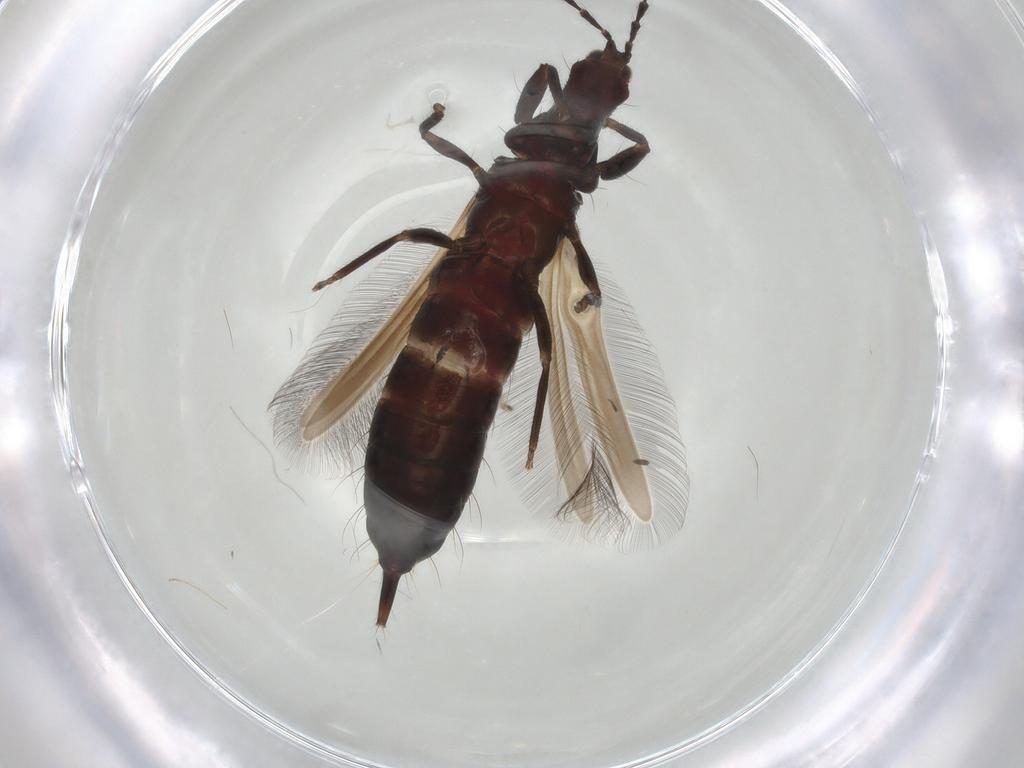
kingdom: Animalia
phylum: Arthropoda
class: Insecta
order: Thysanoptera
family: Phlaeothripidae
